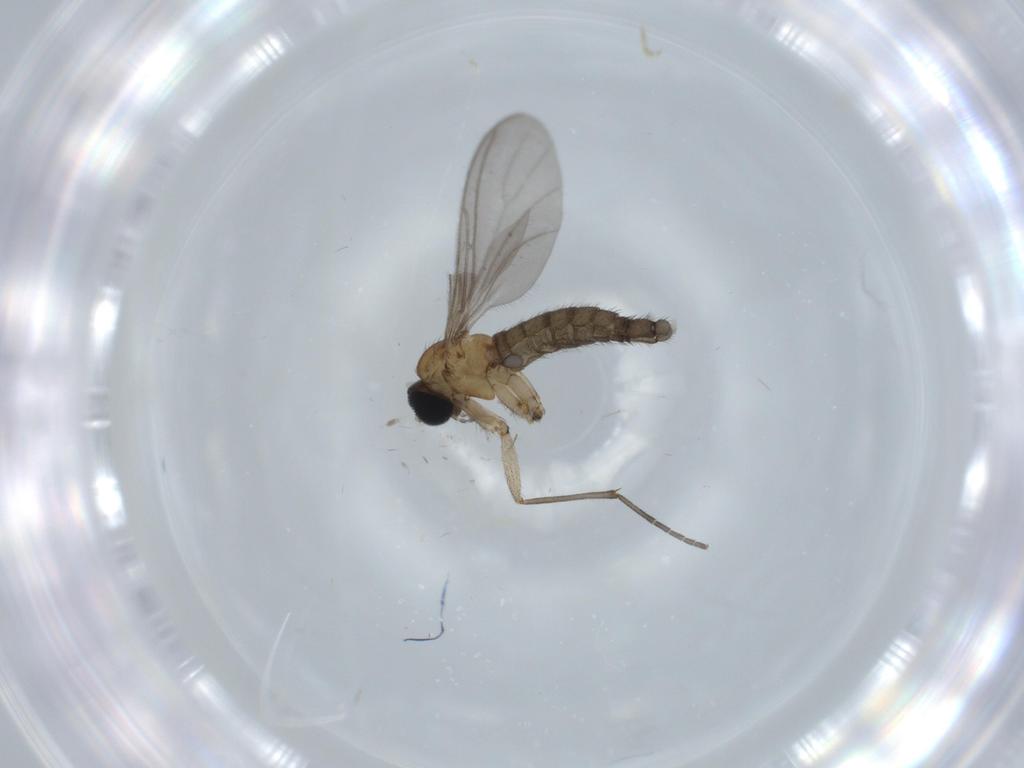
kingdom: Animalia
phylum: Arthropoda
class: Insecta
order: Diptera
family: Sciaridae
